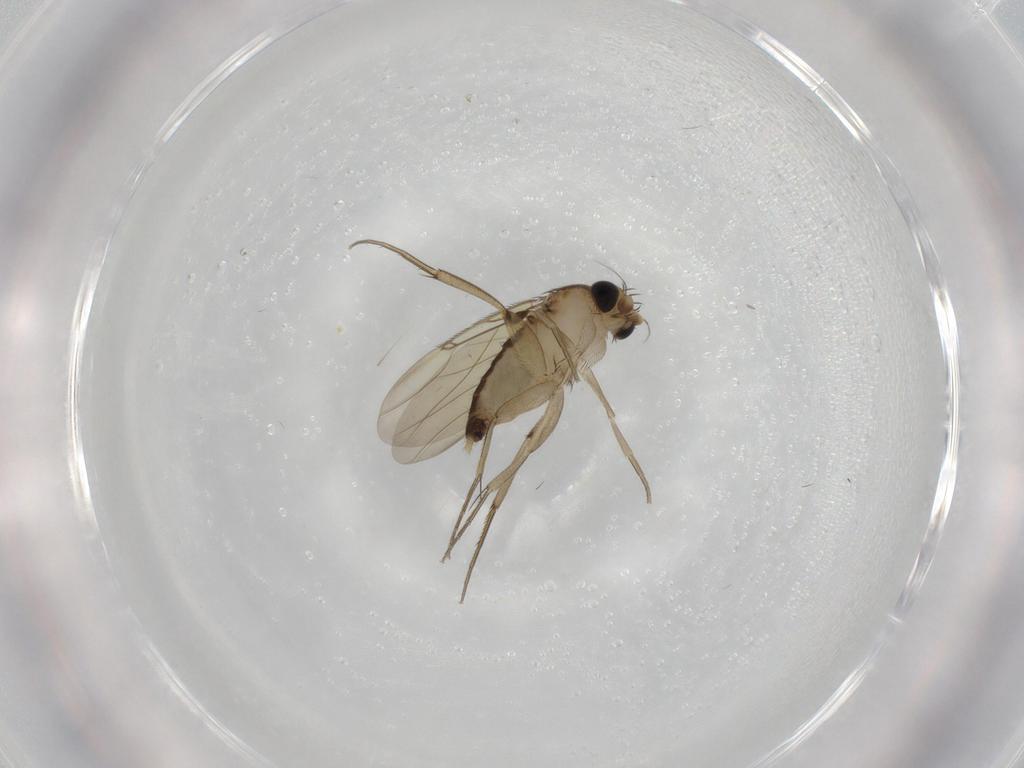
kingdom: Animalia
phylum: Arthropoda
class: Insecta
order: Diptera
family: Phoridae
